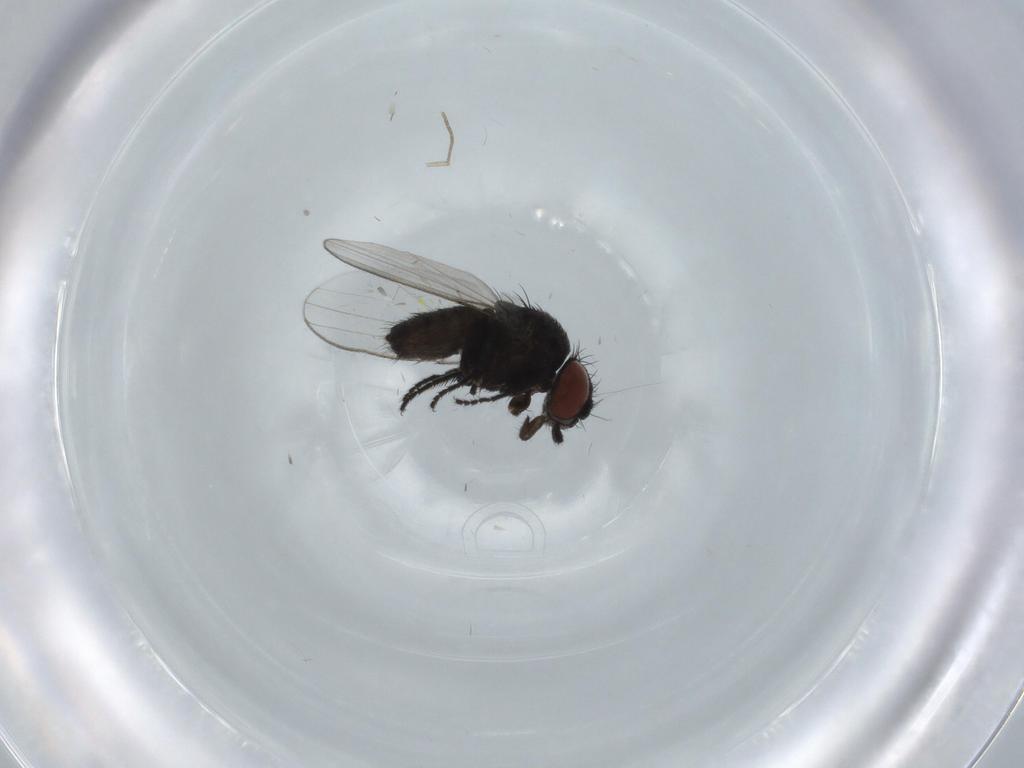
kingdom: Animalia
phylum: Arthropoda
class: Insecta
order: Diptera
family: Milichiidae
